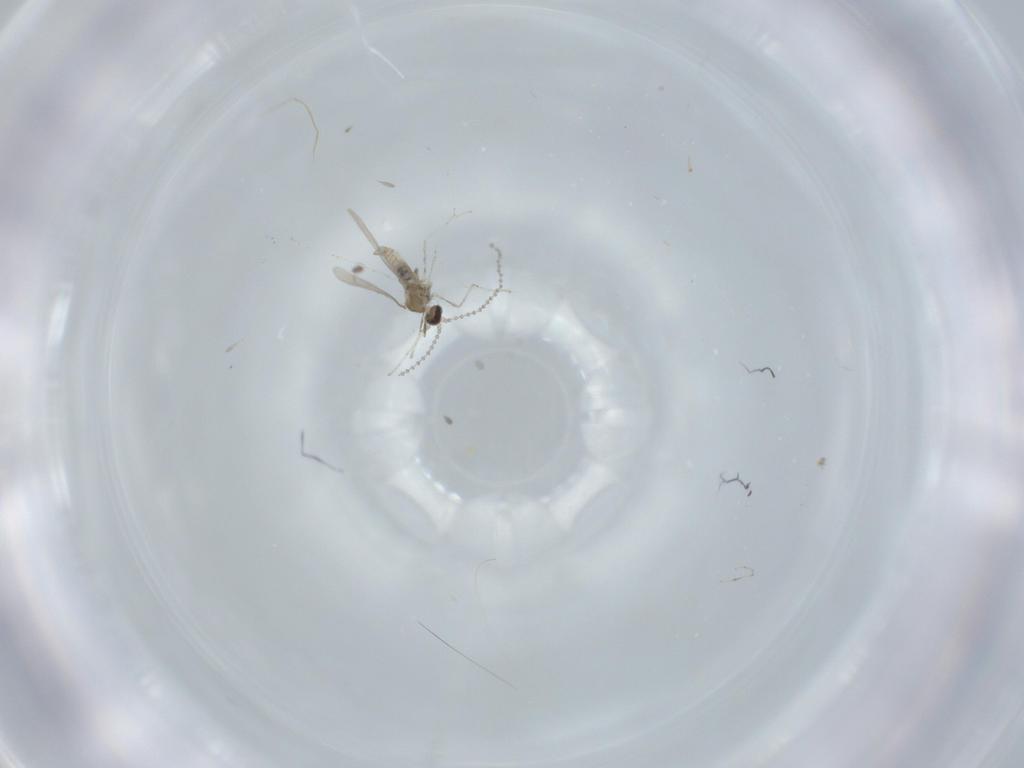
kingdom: Animalia
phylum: Arthropoda
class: Insecta
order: Diptera
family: Cecidomyiidae
